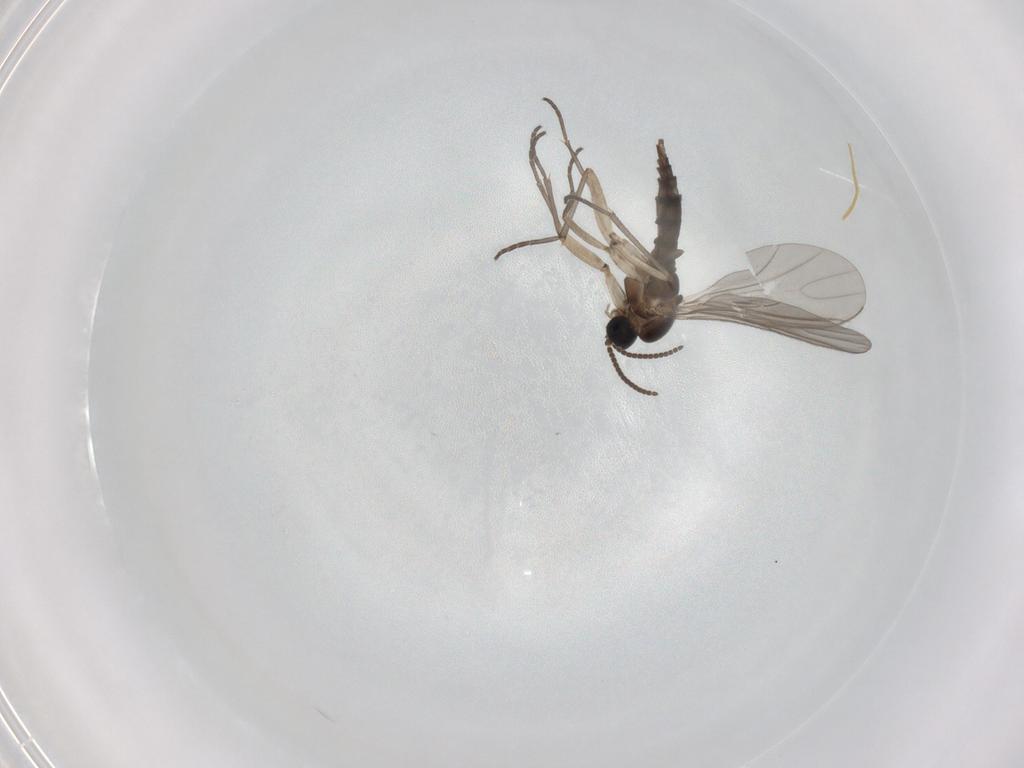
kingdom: Animalia
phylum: Arthropoda
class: Insecta
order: Diptera
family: Sciaridae
